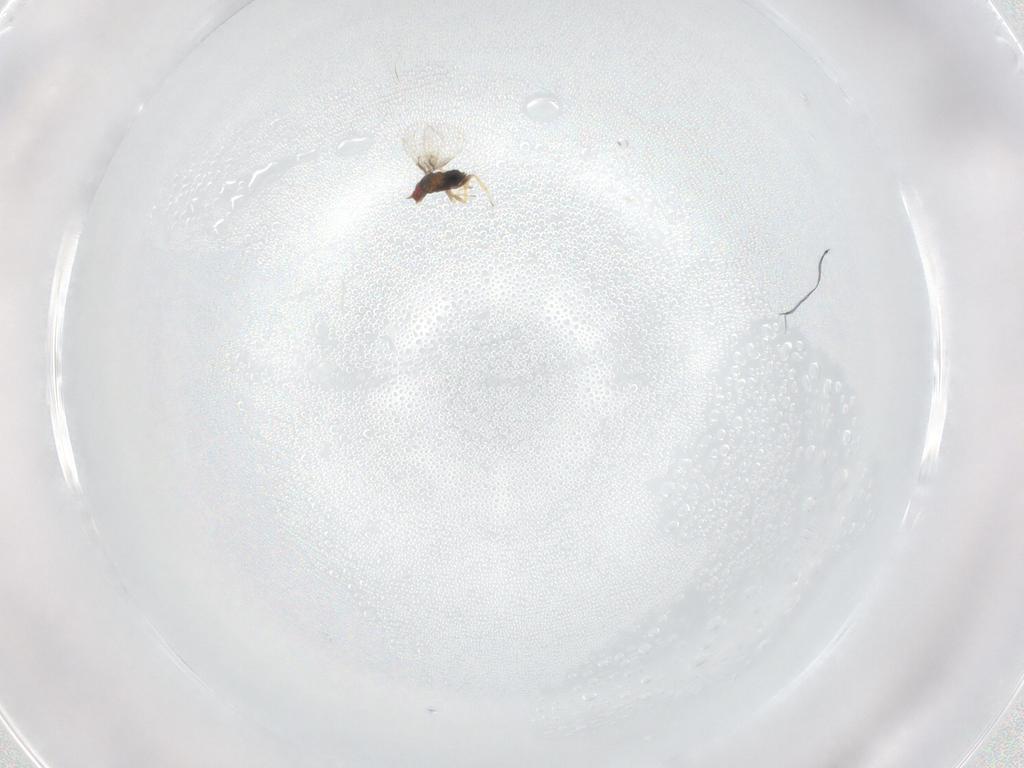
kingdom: Animalia
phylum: Arthropoda
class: Insecta
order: Hymenoptera
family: Trichogrammatidae
